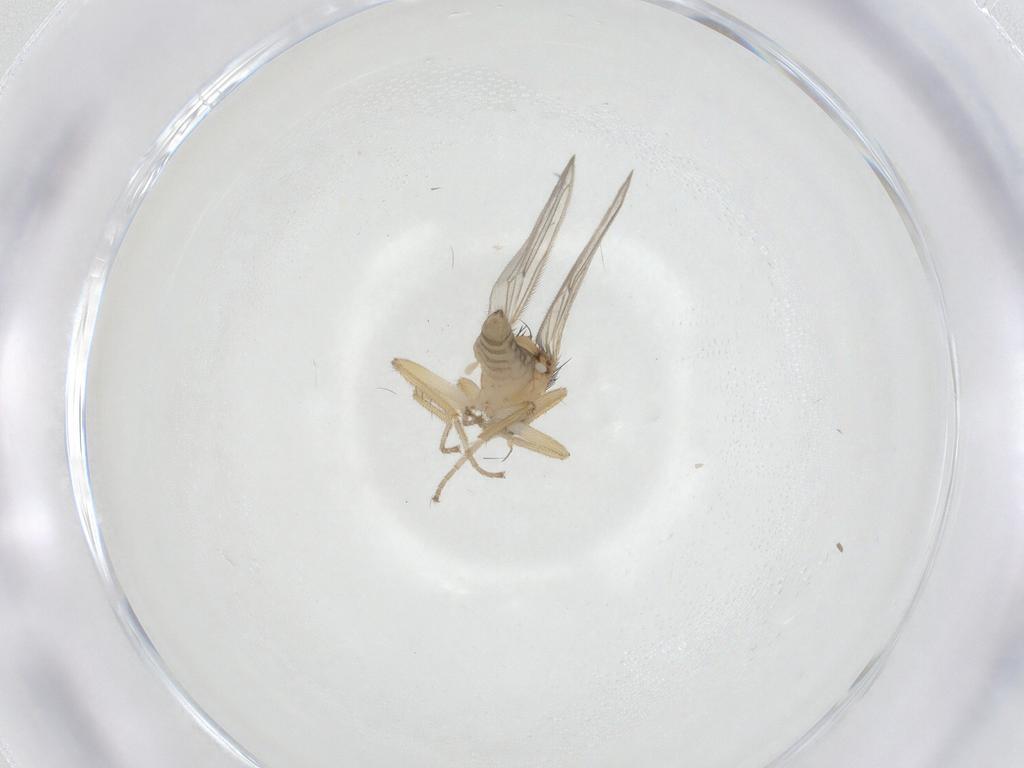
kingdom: Animalia
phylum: Arthropoda
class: Insecta
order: Diptera
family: Hybotidae
